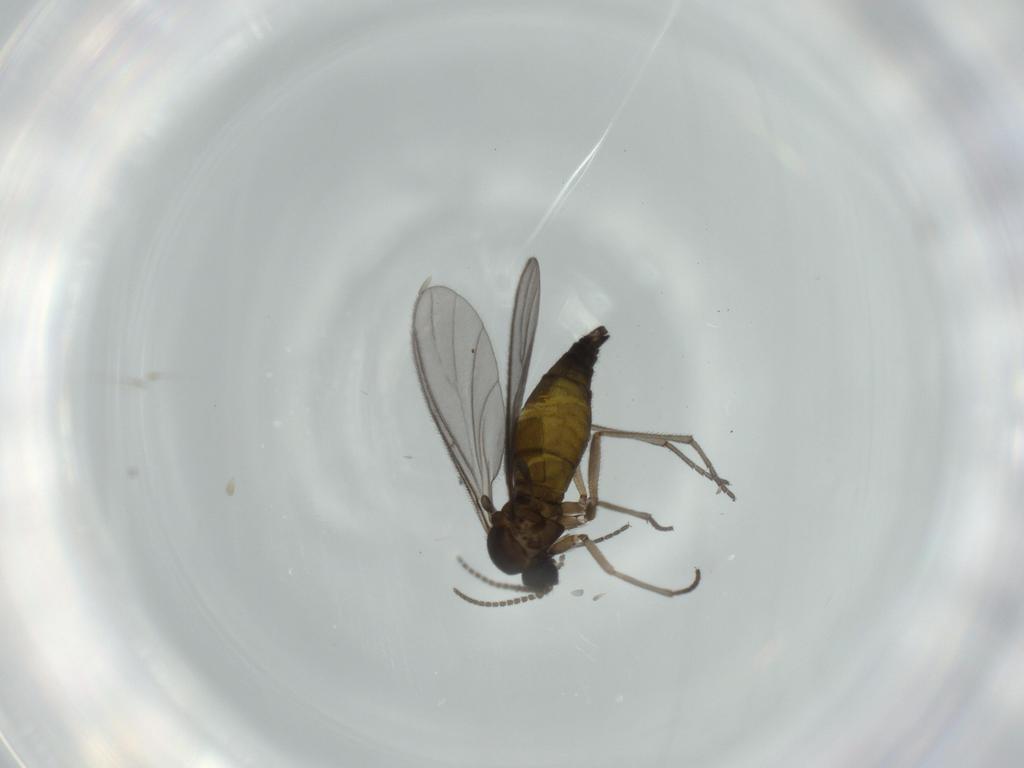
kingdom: Animalia
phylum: Arthropoda
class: Insecta
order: Diptera
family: Sciaridae
